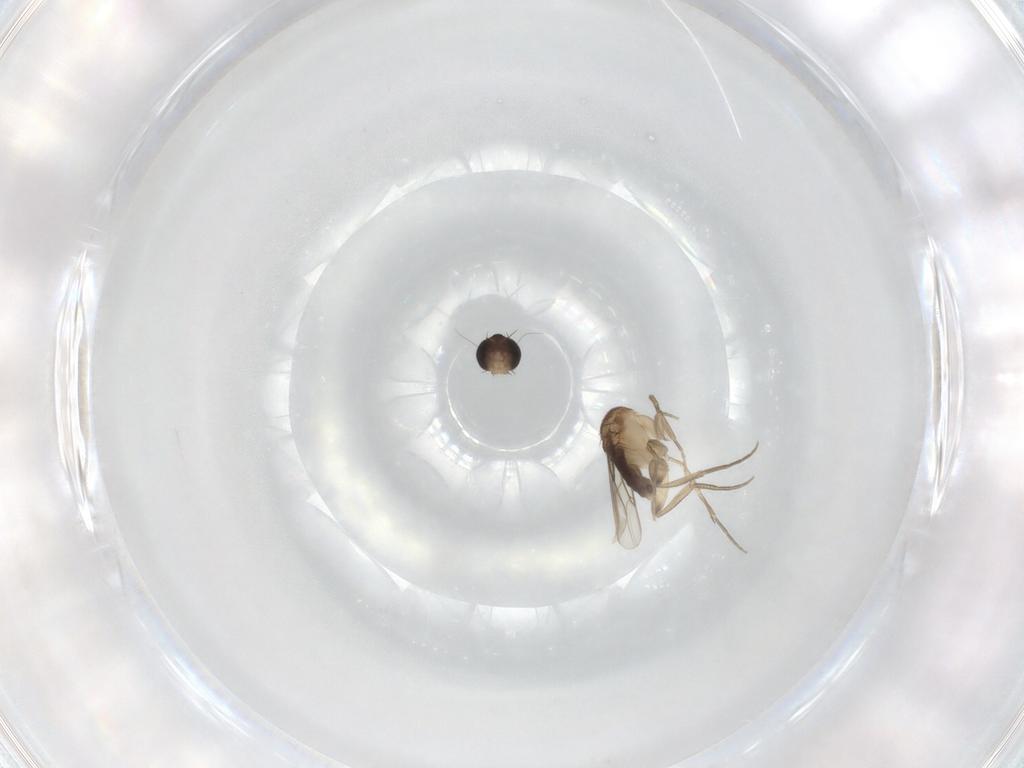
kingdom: Animalia
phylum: Arthropoda
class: Insecta
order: Diptera
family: Phoridae
